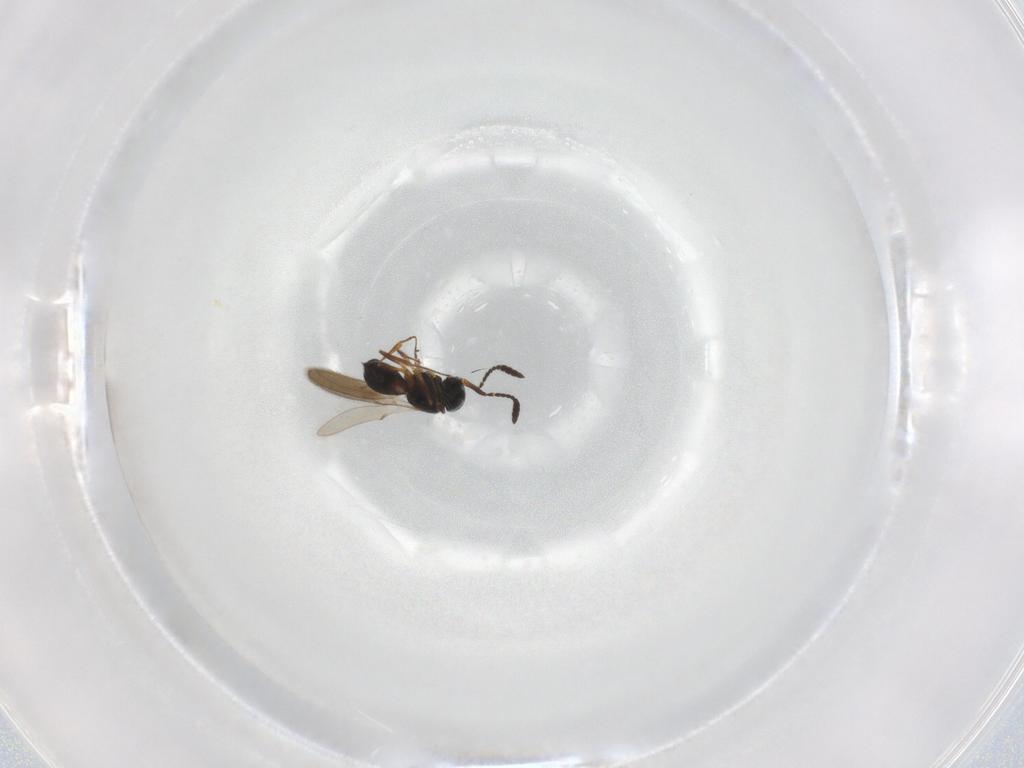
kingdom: Animalia
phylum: Arthropoda
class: Insecta
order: Hymenoptera
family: Scelionidae
